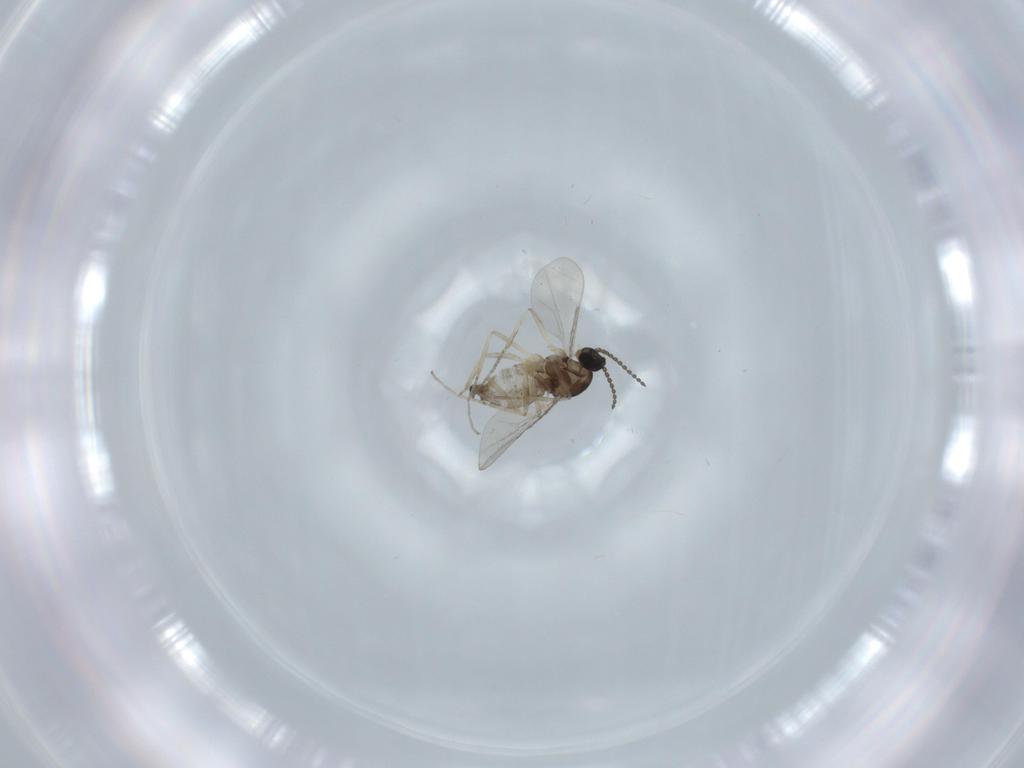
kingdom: Animalia
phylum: Arthropoda
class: Insecta
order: Diptera
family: Cecidomyiidae
